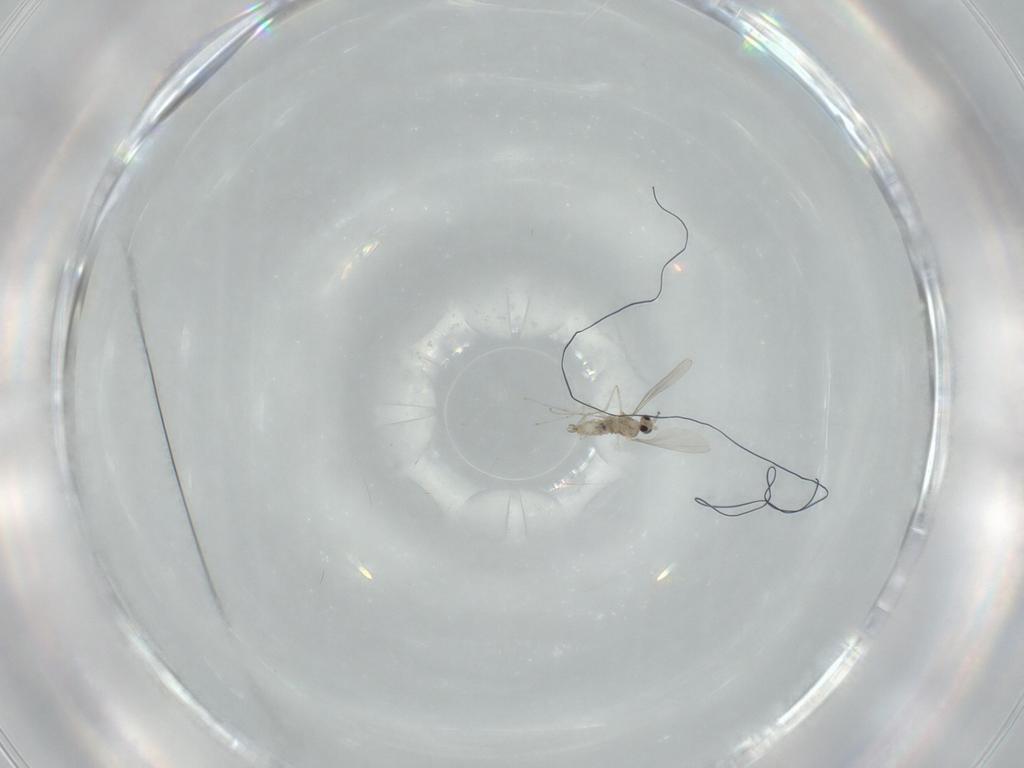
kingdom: Animalia
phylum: Arthropoda
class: Insecta
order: Diptera
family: Cecidomyiidae
